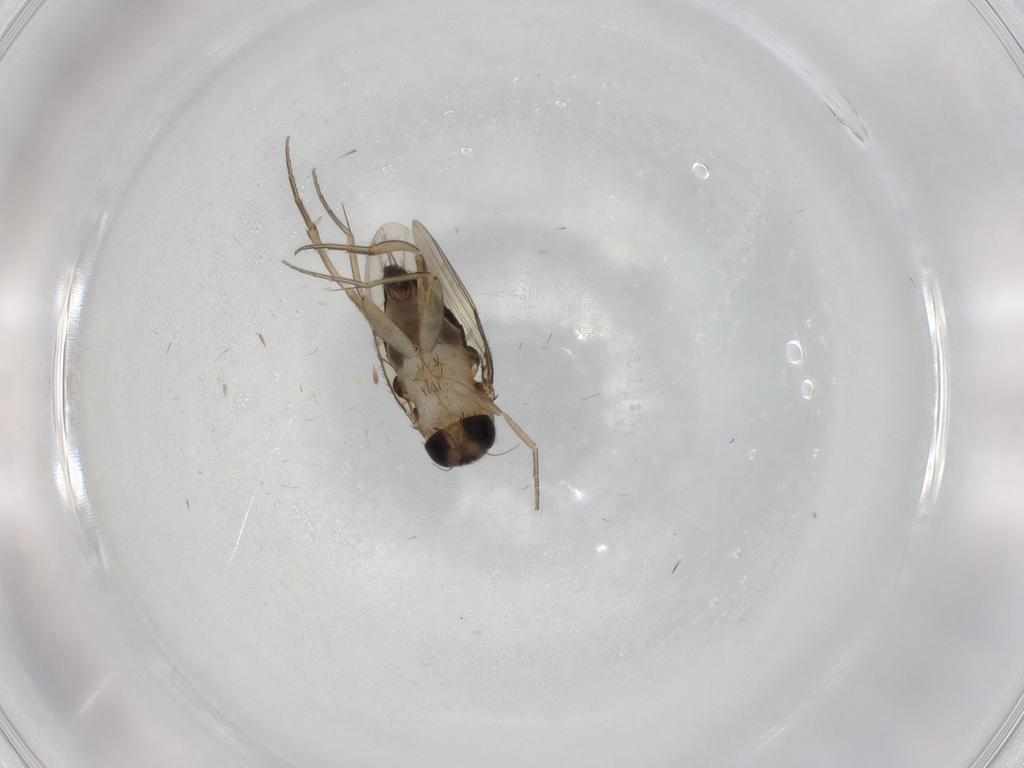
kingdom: Animalia
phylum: Arthropoda
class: Insecta
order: Diptera
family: Phoridae
